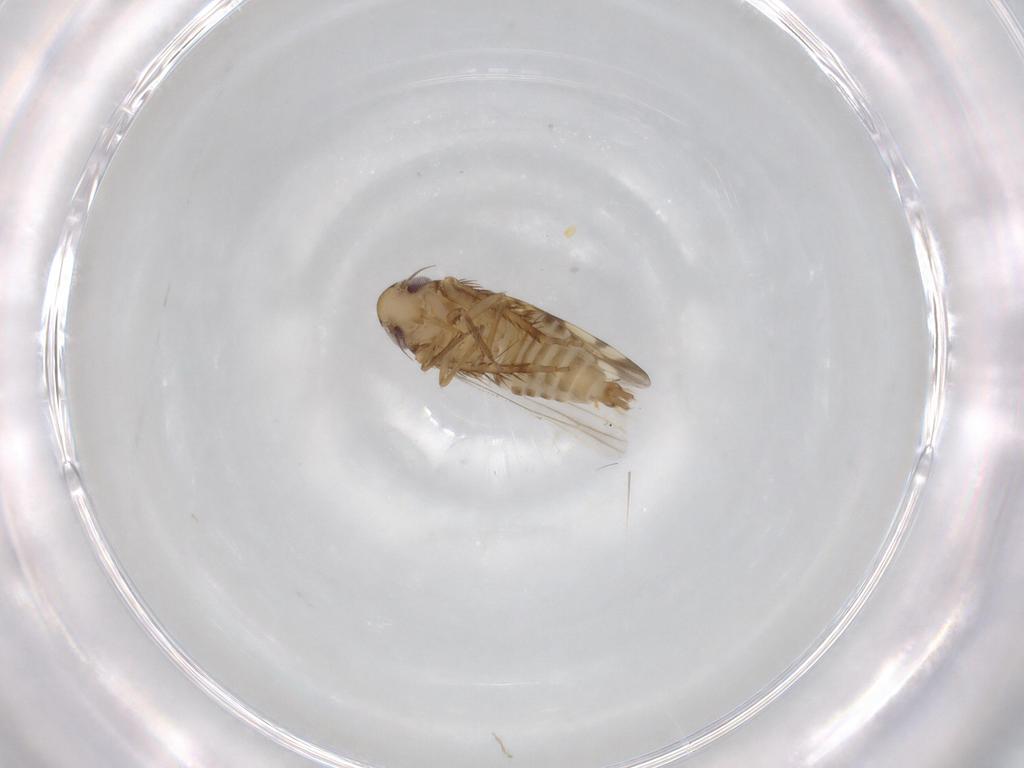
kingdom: Animalia
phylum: Arthropoda
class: Insecta
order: Hemiptera
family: Cicadellidae
